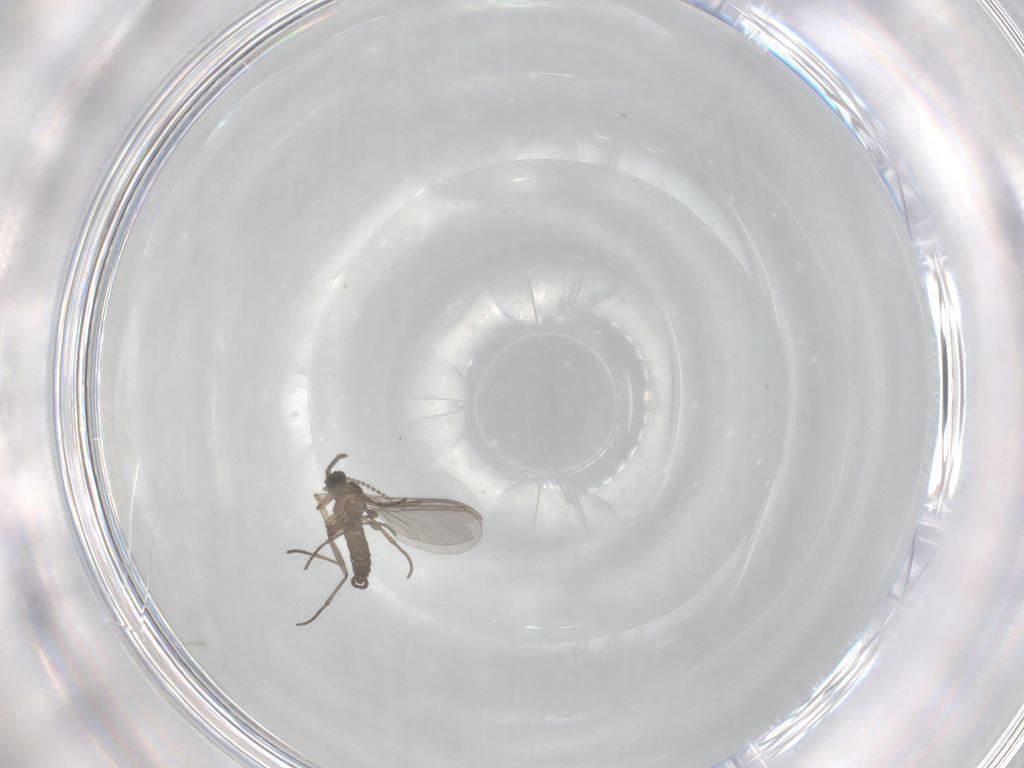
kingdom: Animalia
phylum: Arthropoda
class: Insecta
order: Diptera
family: Sciaridae
